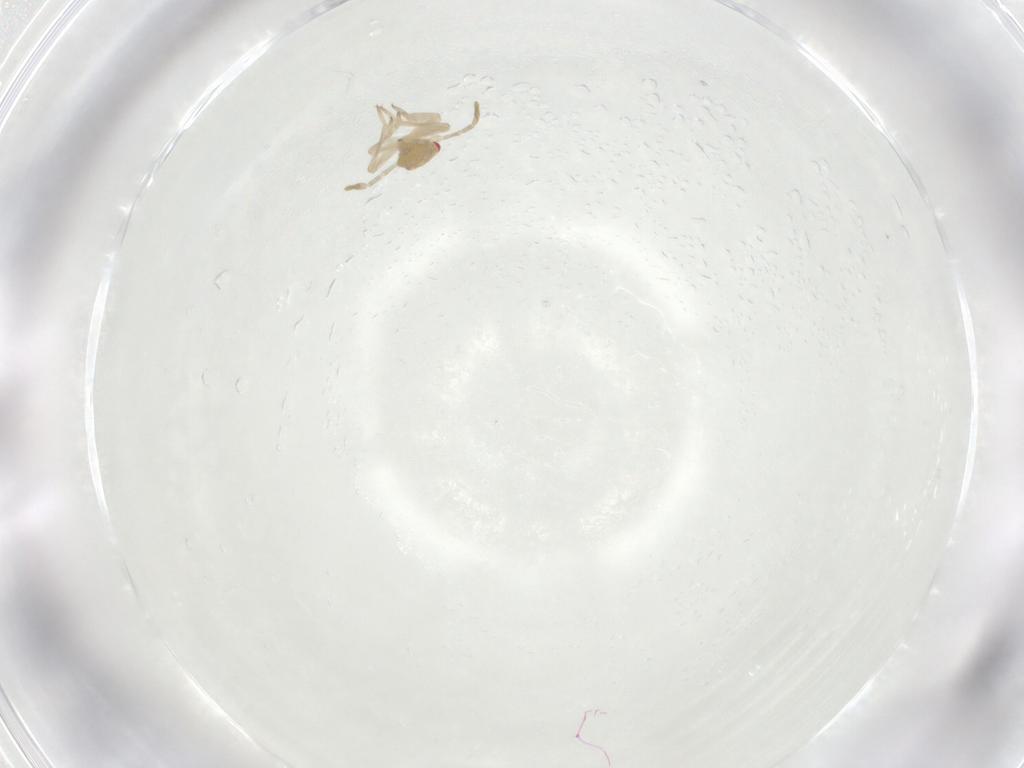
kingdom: Animalia
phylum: Arthropoda
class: Insecta
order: Hemiptera
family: Miridae
